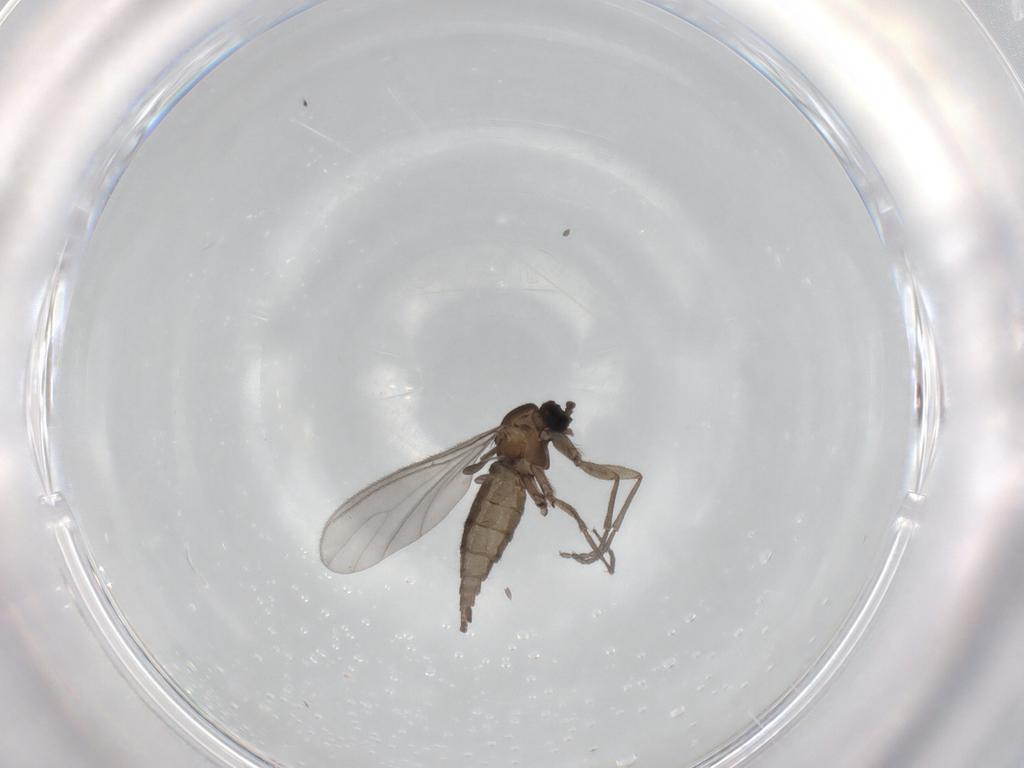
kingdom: Animalia
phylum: Arthropoda
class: Insecta
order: Diptera
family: Sciaridae
